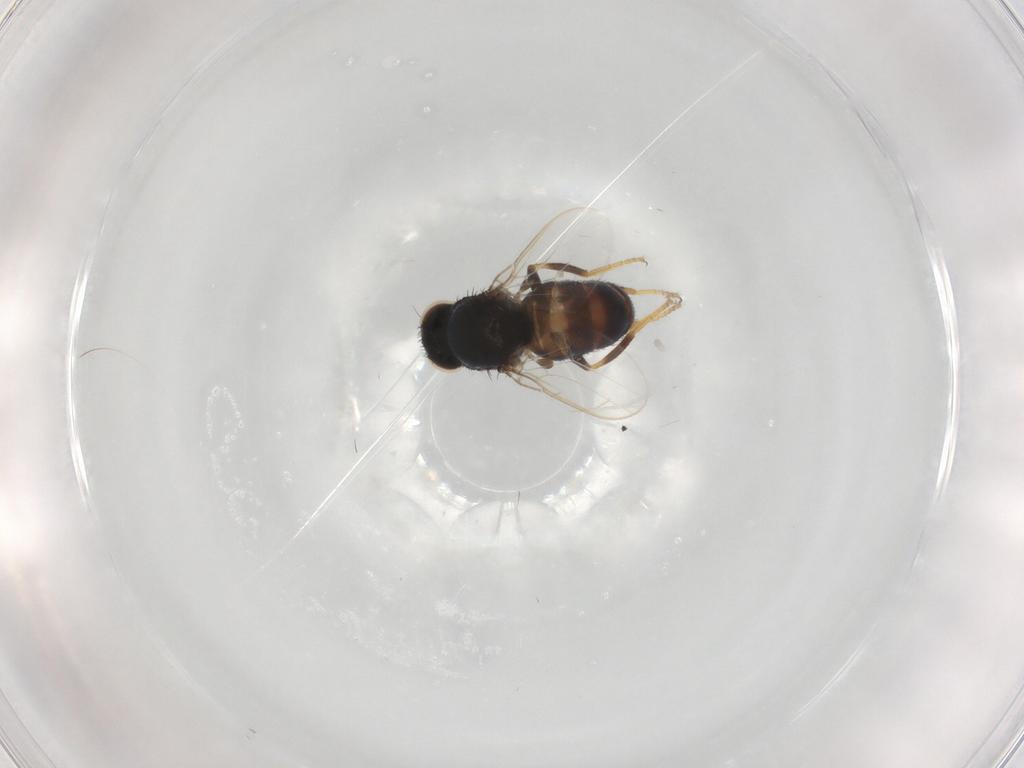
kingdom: Animalia
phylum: Arthropoda
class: Insecta
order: Diptera
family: Chloropidae
